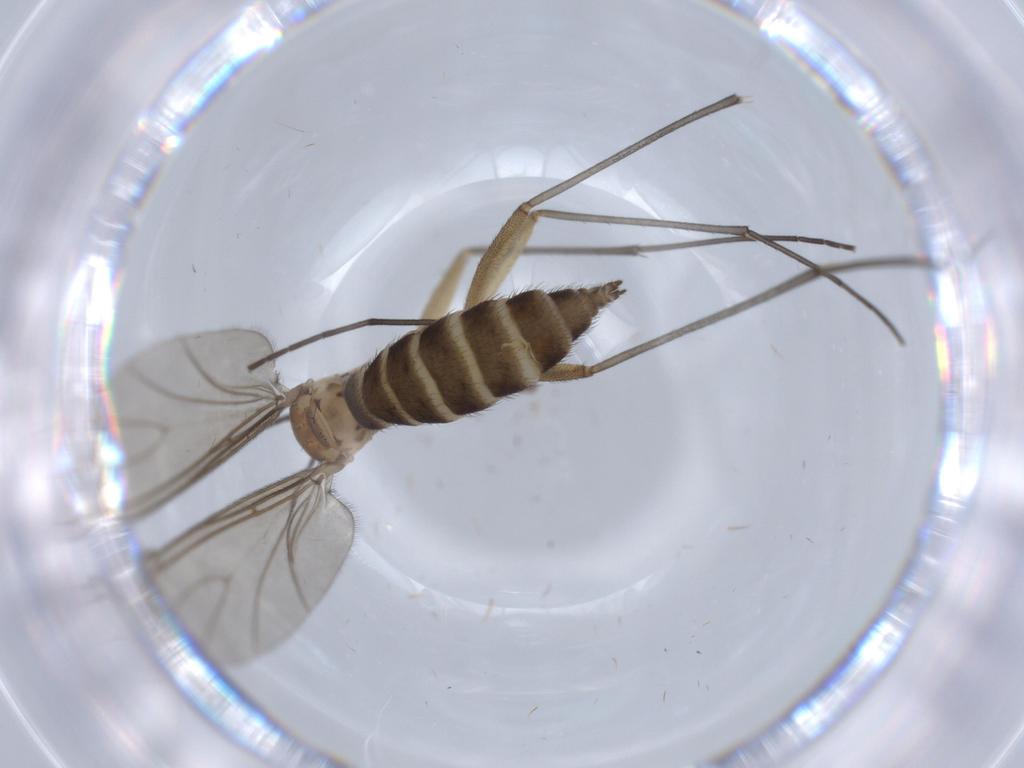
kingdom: Animalia
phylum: Arthropoda
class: Insecta
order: Diptera
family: Sciaridae
